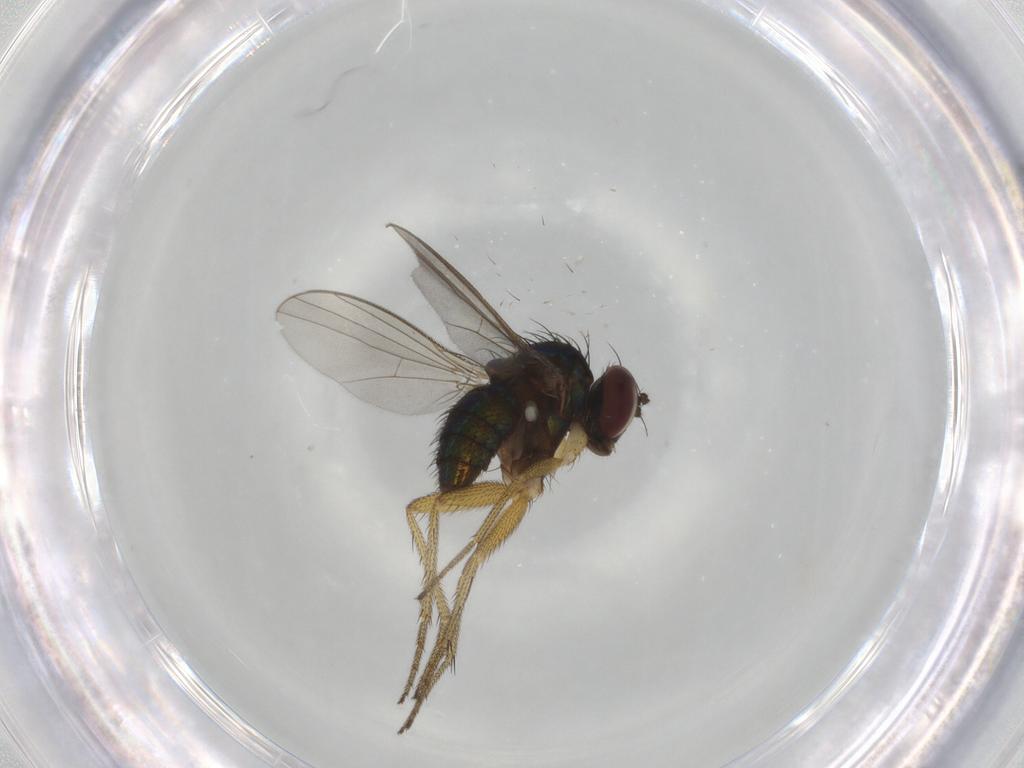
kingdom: Animalia
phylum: Arthropoda
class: Insecta
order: Diptera
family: Dolichopodidae
